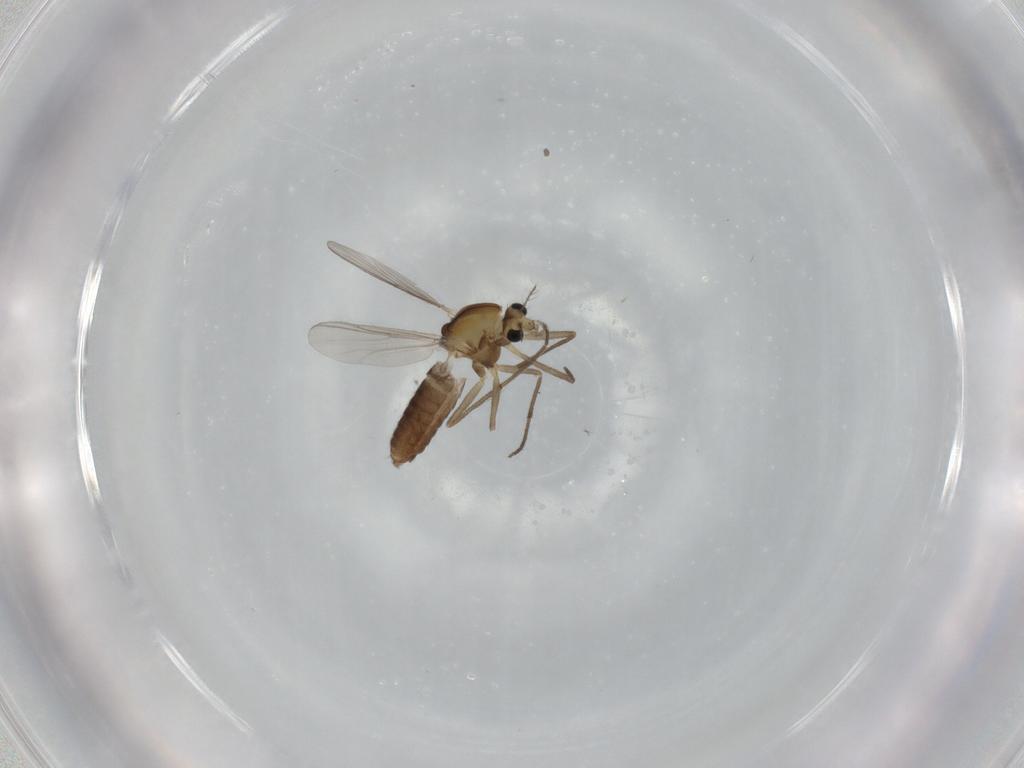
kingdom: Animalia
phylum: Arthropoda
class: Insecta
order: Diptera
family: Chironomidae
